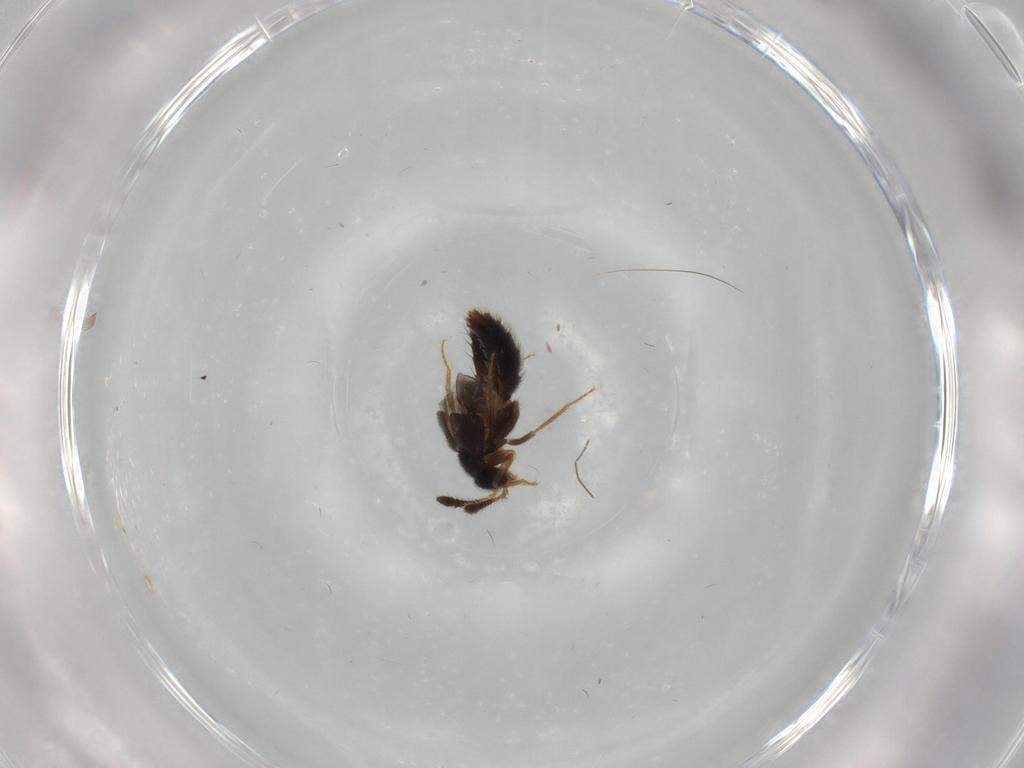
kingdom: Animalia
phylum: Arthropoda
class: Insecta
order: Coleoptera
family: Staphylinidae
